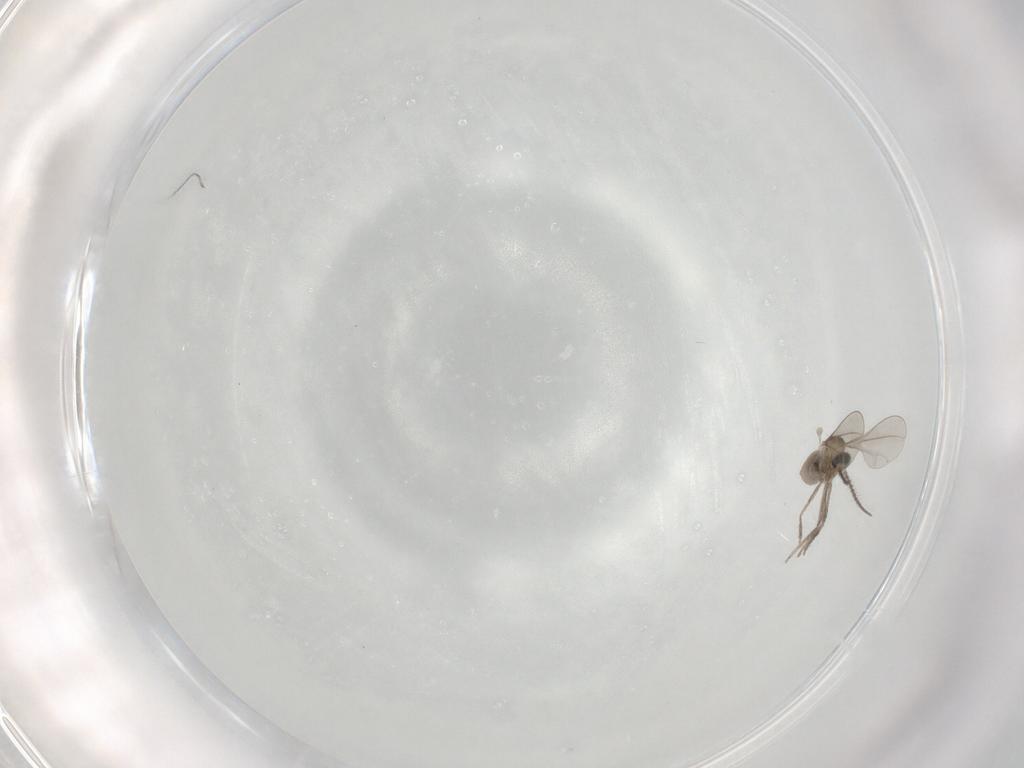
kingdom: Animalia
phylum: Arthropoda
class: Insecta
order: Diptera
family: Cecidomyiidae
